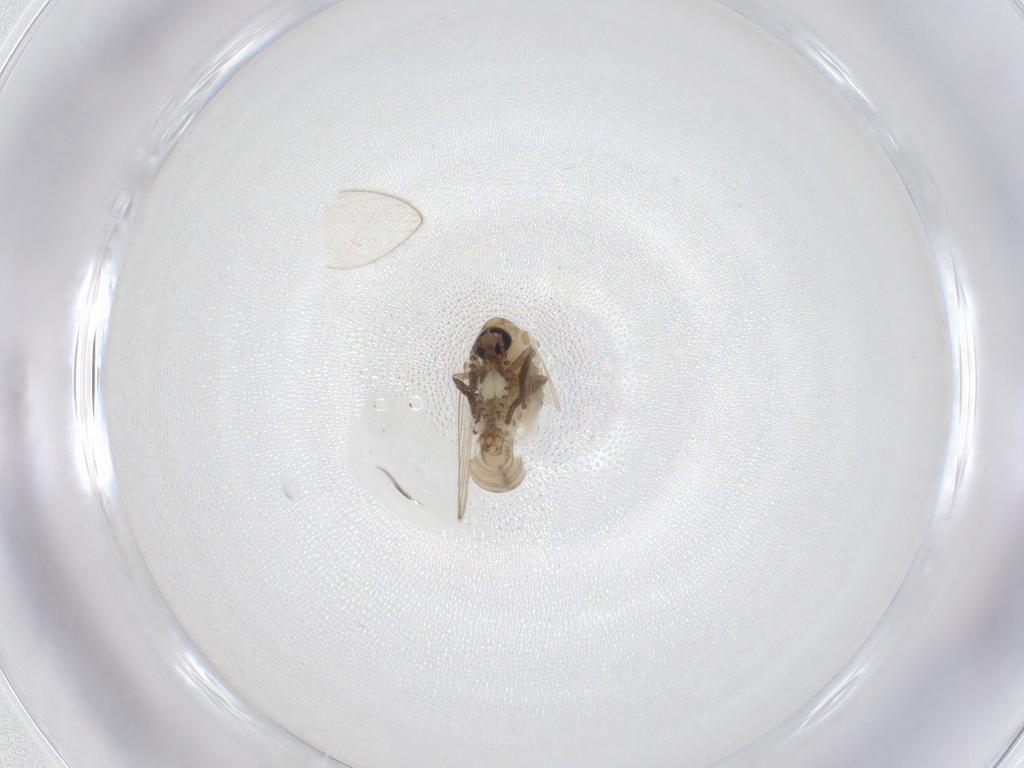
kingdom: Animalia
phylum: Arthropoda
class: Insecta
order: Diptera
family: Psychodidae
